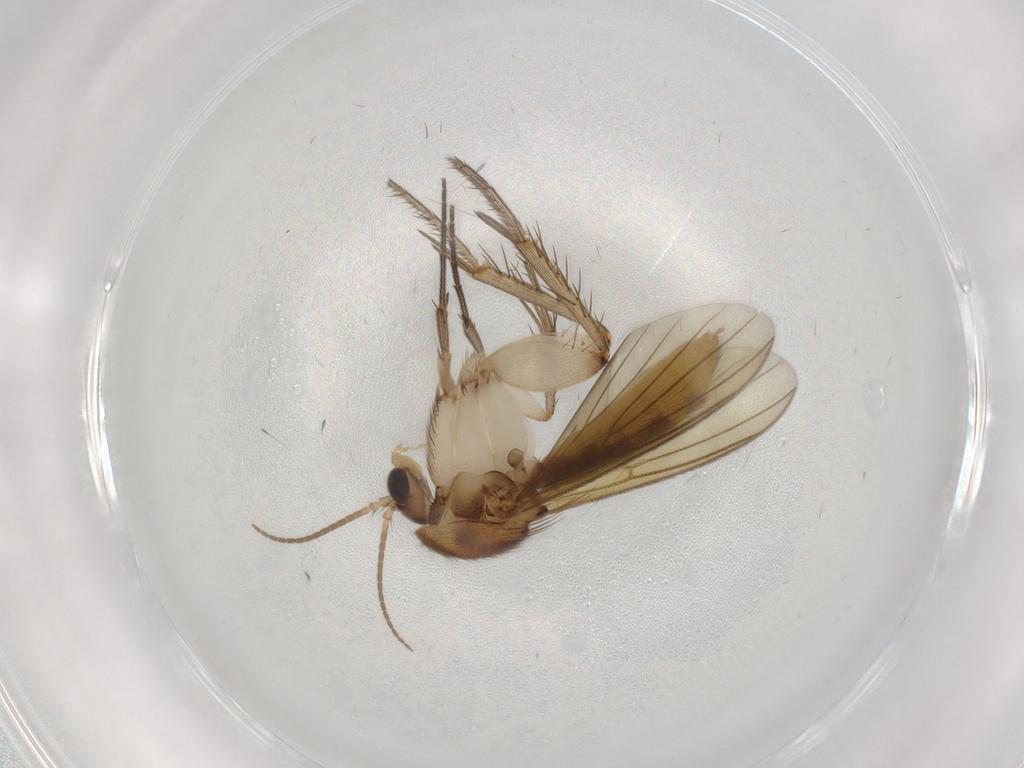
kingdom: Animalia
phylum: Arthropoda
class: Insecta
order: Diptera
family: Mycetophilidae
